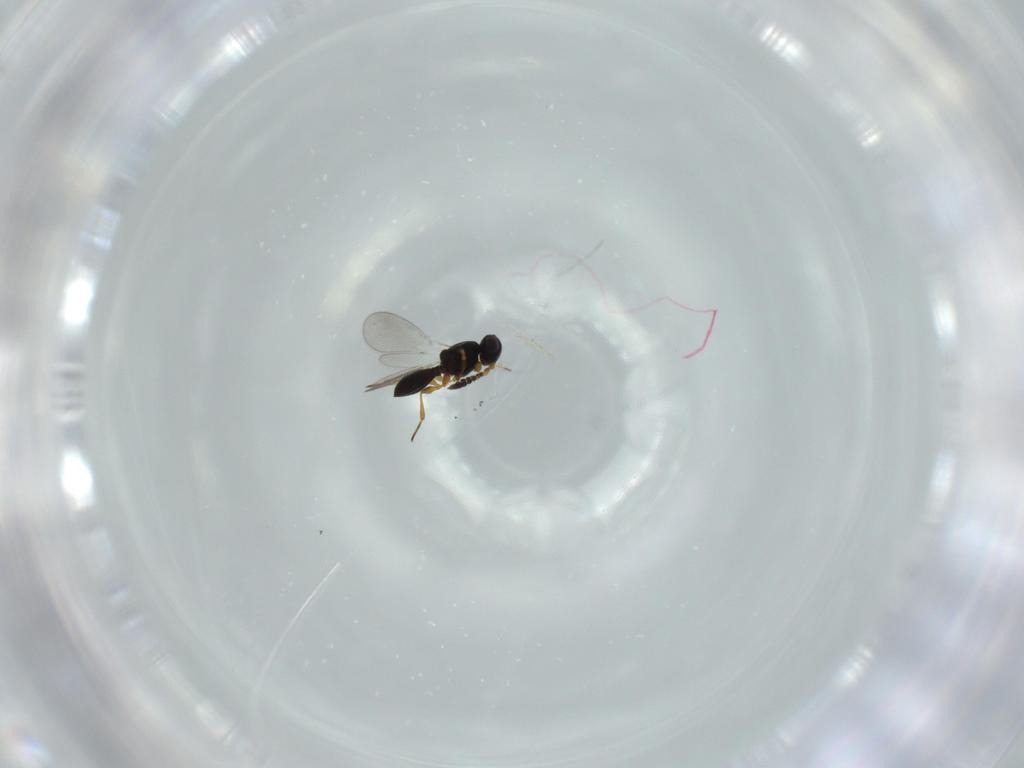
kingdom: Animalia
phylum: Arthropoda
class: Insecta
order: Hymenoptera
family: Platygastridae
